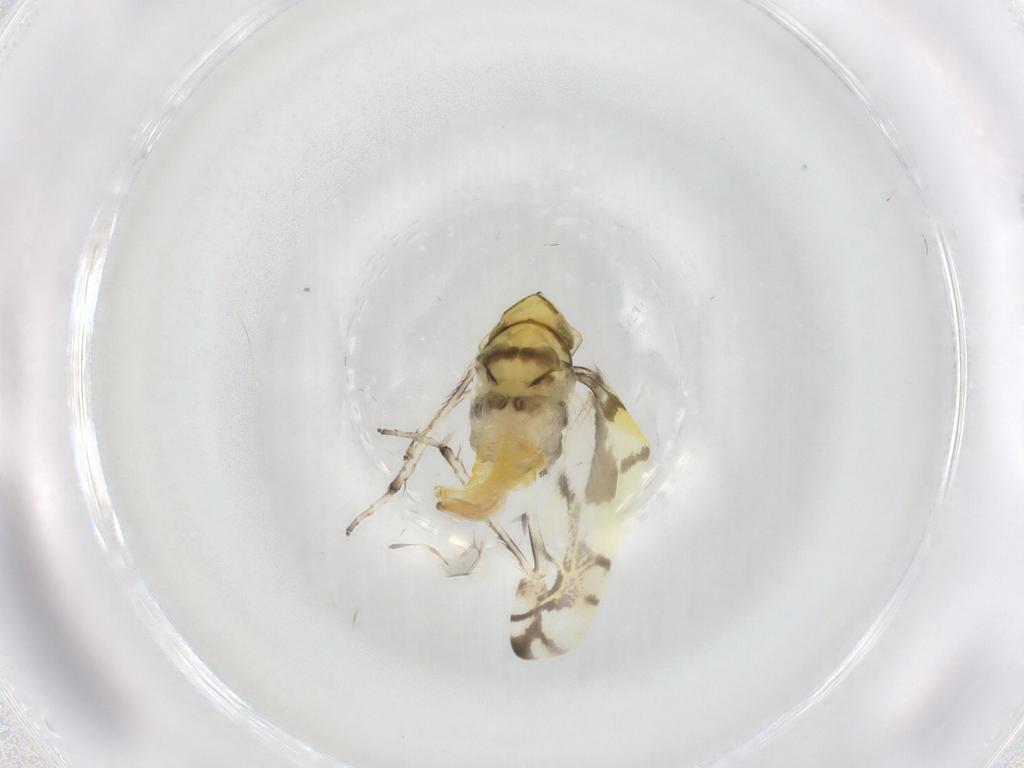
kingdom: Animalia
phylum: Arthropoda
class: Insecta
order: Hemiptera
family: Cicadellidae
